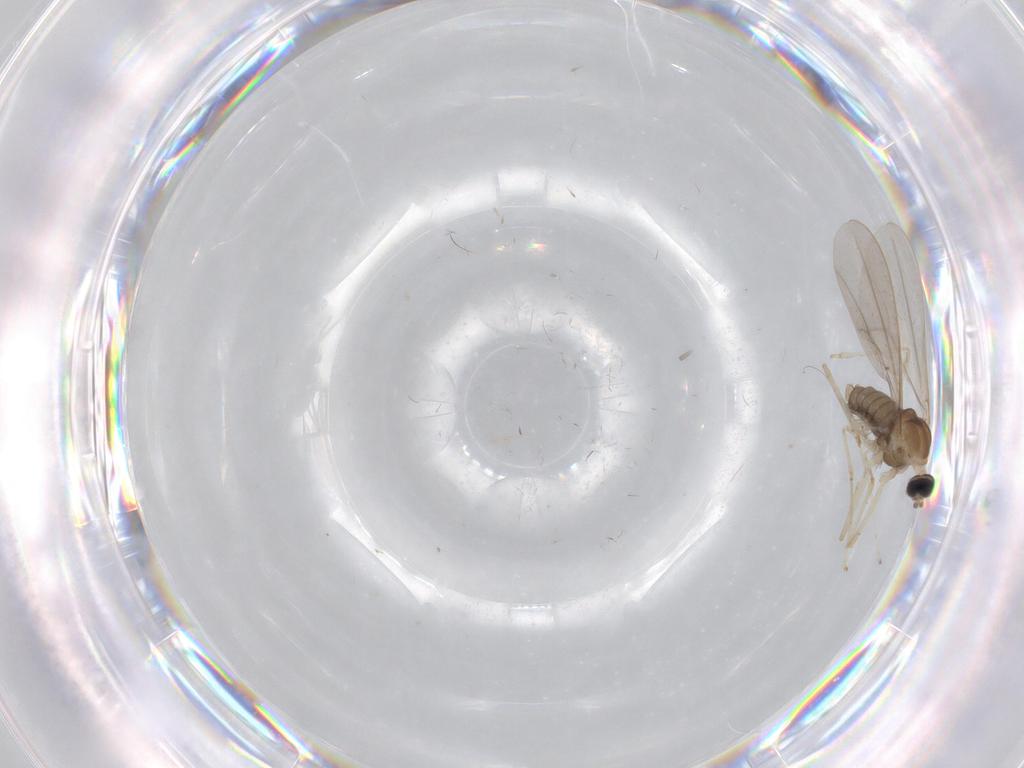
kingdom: Animalia
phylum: Arthropoda
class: Insecta
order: Diptera
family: Cecidomyiidae
